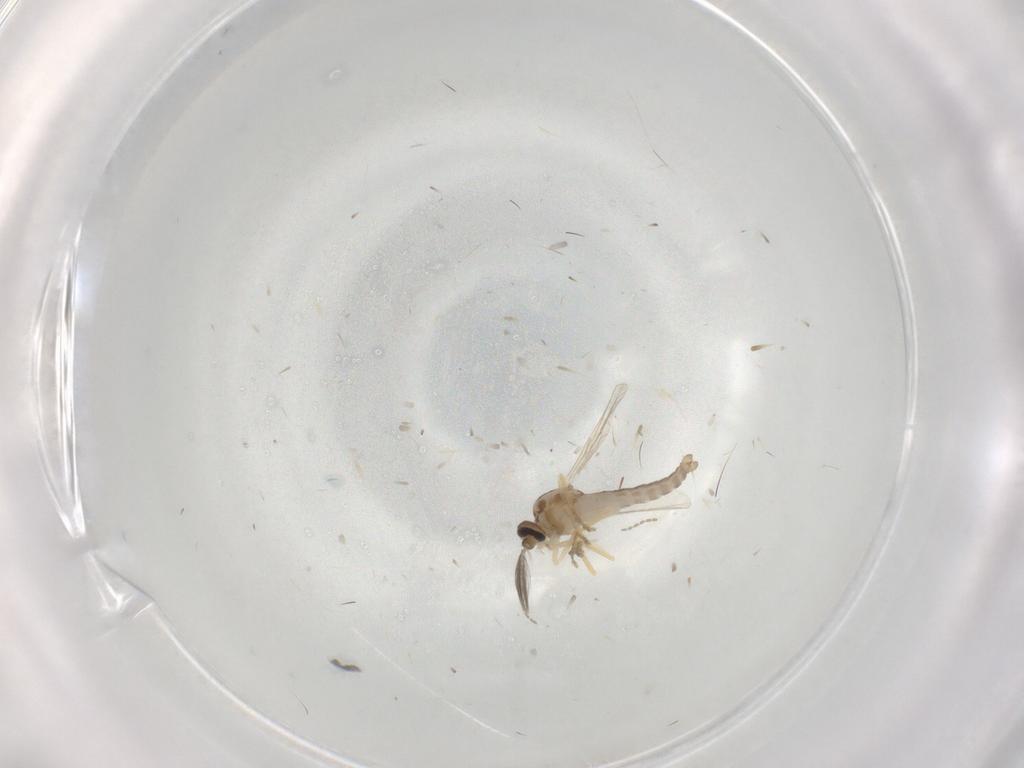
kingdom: Animalia
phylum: Arthropoda
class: Insecta
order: Diptera
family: Ceratopogonidae
